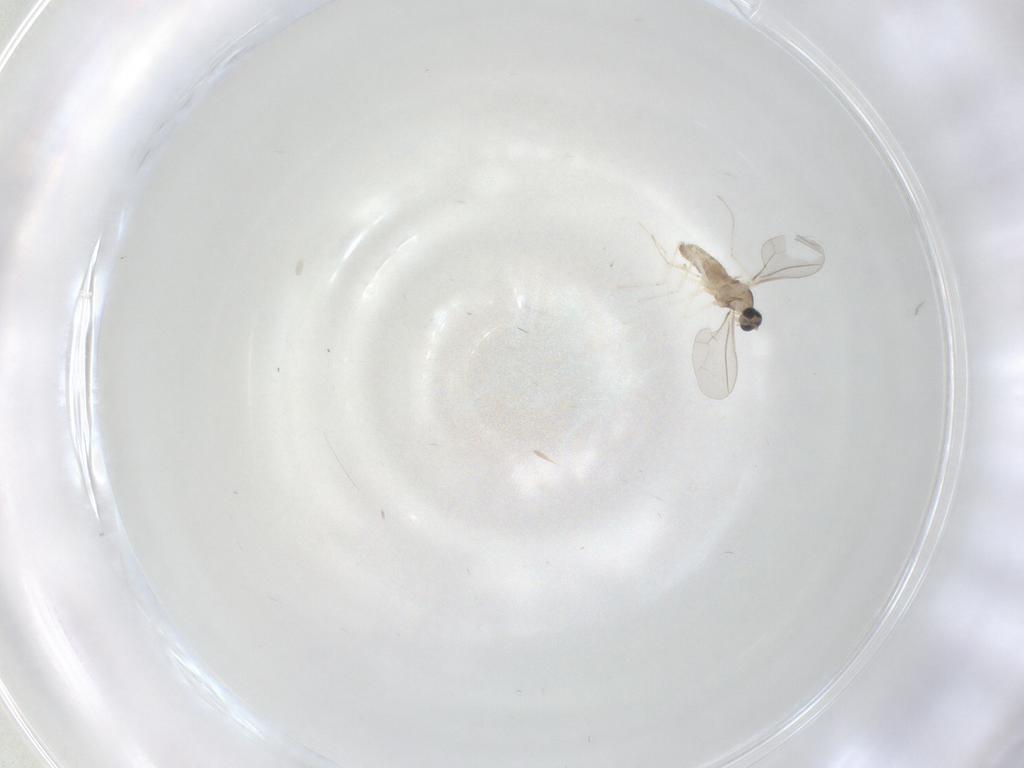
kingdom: Animalia
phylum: Arthropoda
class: Insecta
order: Diptera
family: Cecidomyiidae
